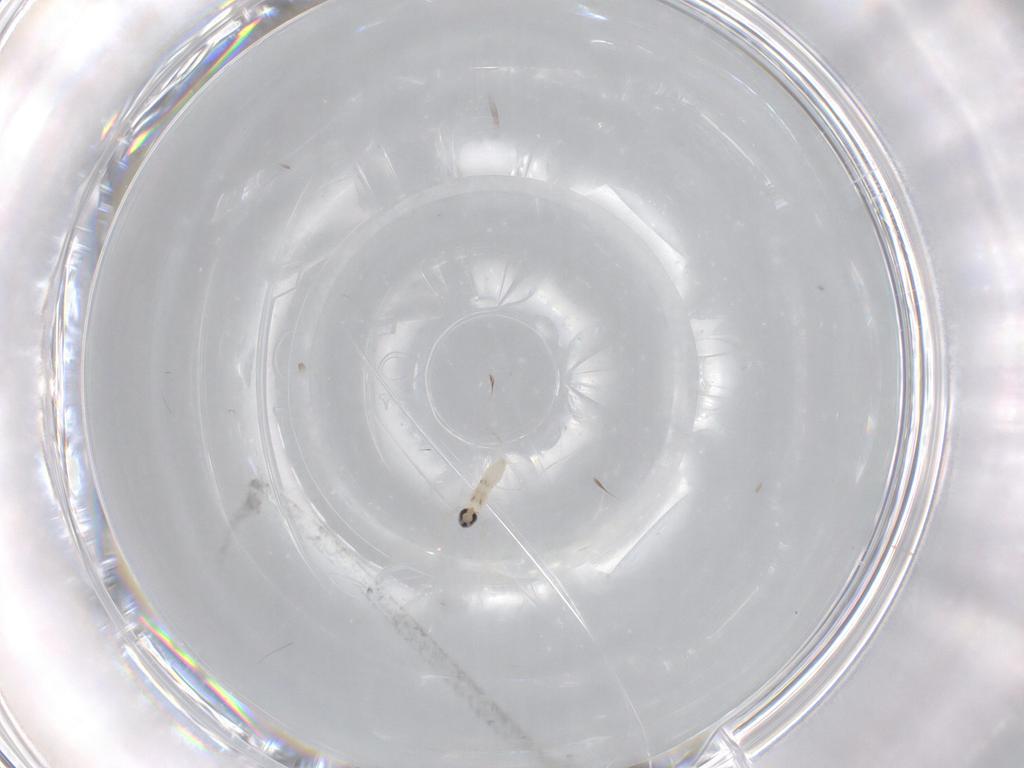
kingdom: Animalia
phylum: Arthropoda
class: Insecta
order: Diptera
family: Cecidomyiidae
